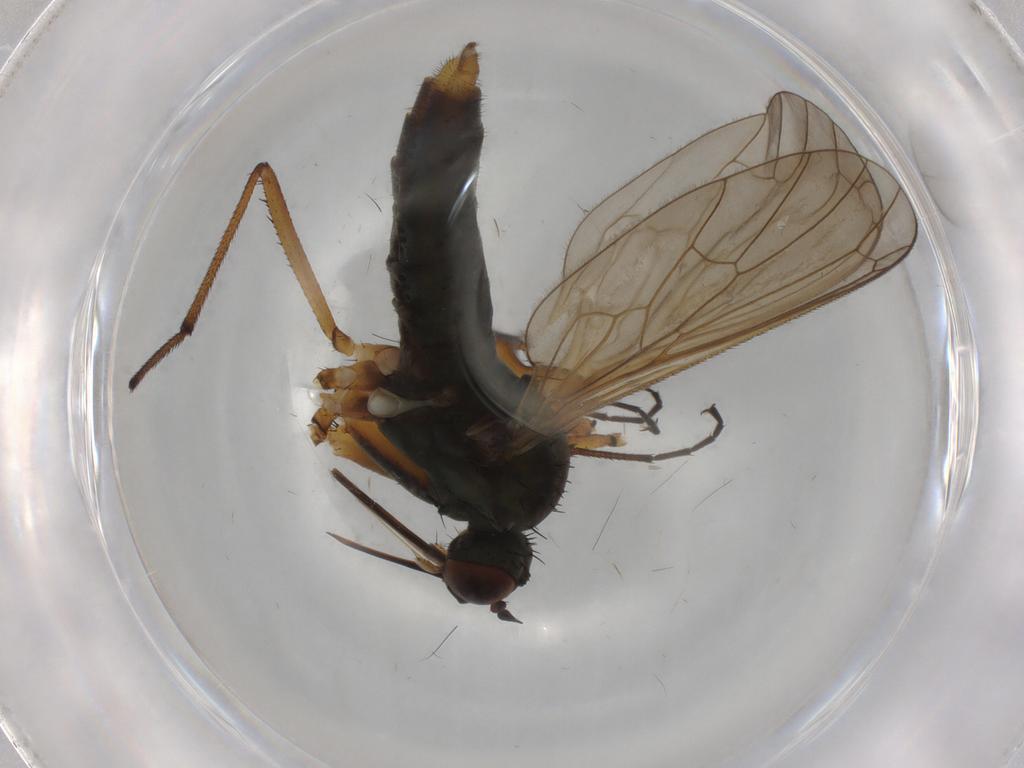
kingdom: Animalia
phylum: Arthropoda
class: Insecta
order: Diptera
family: Empididae
